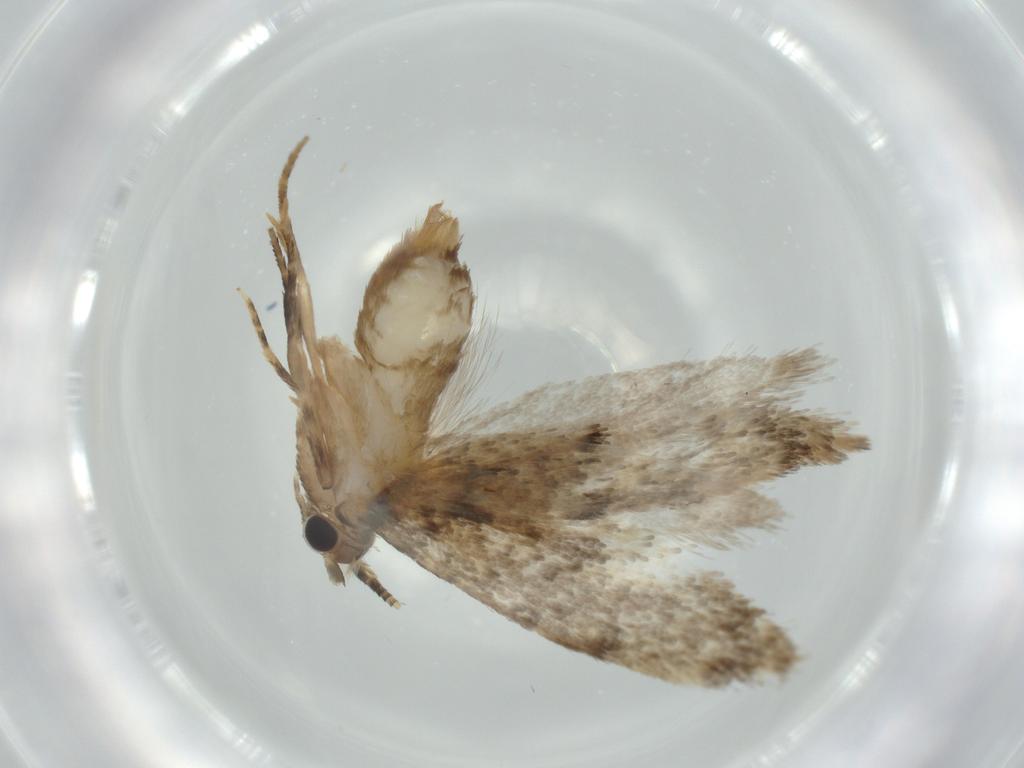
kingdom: Animalia
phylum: Arthropoda
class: Insecta
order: Lepidoptera
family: Tineidae
